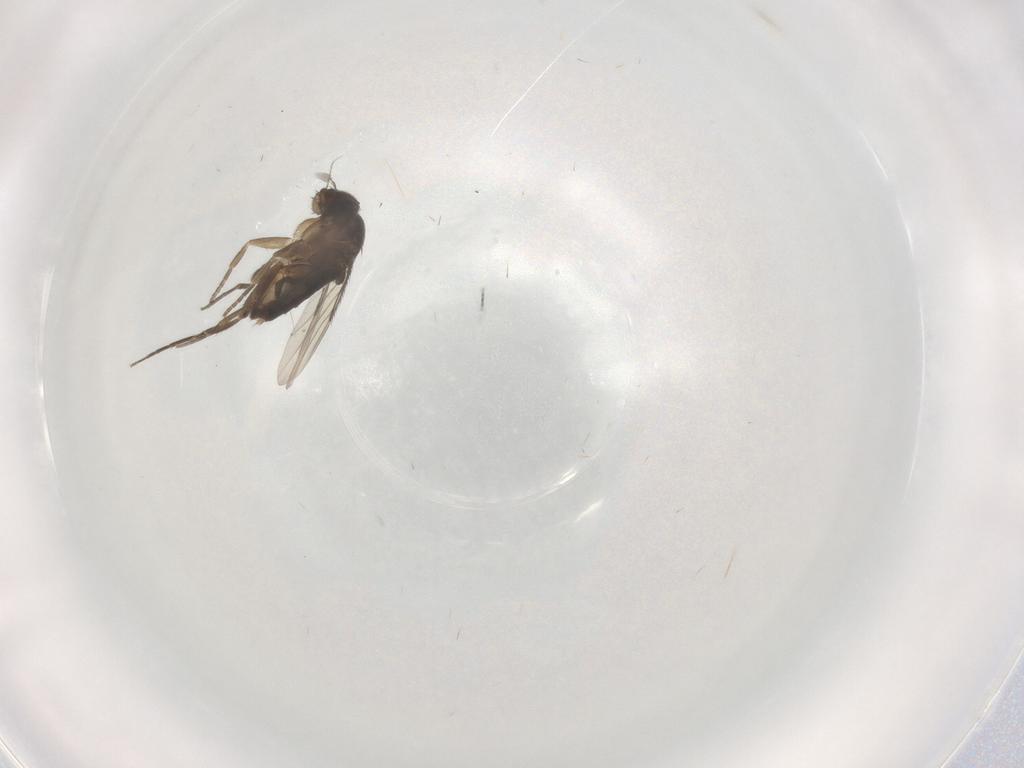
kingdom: Animalia
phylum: Arthropoda
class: Insecta
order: Diptera
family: Phoridae
